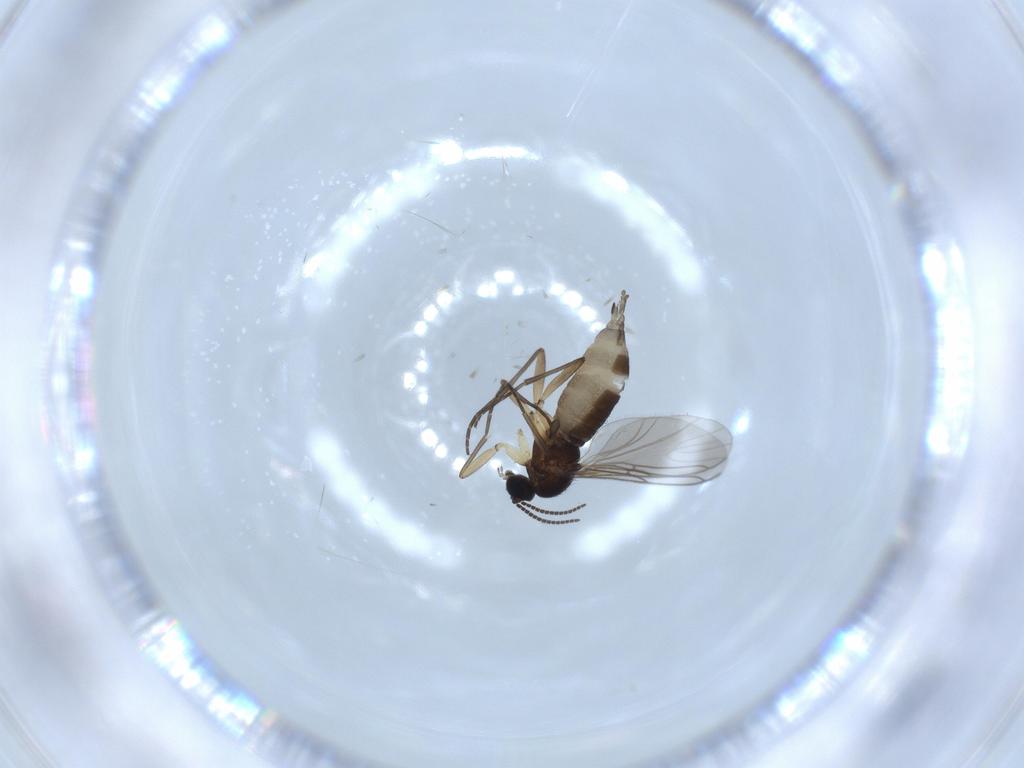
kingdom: Animalia
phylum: Arthropoda
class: Insecta
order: Diptera
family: Sciaridae
